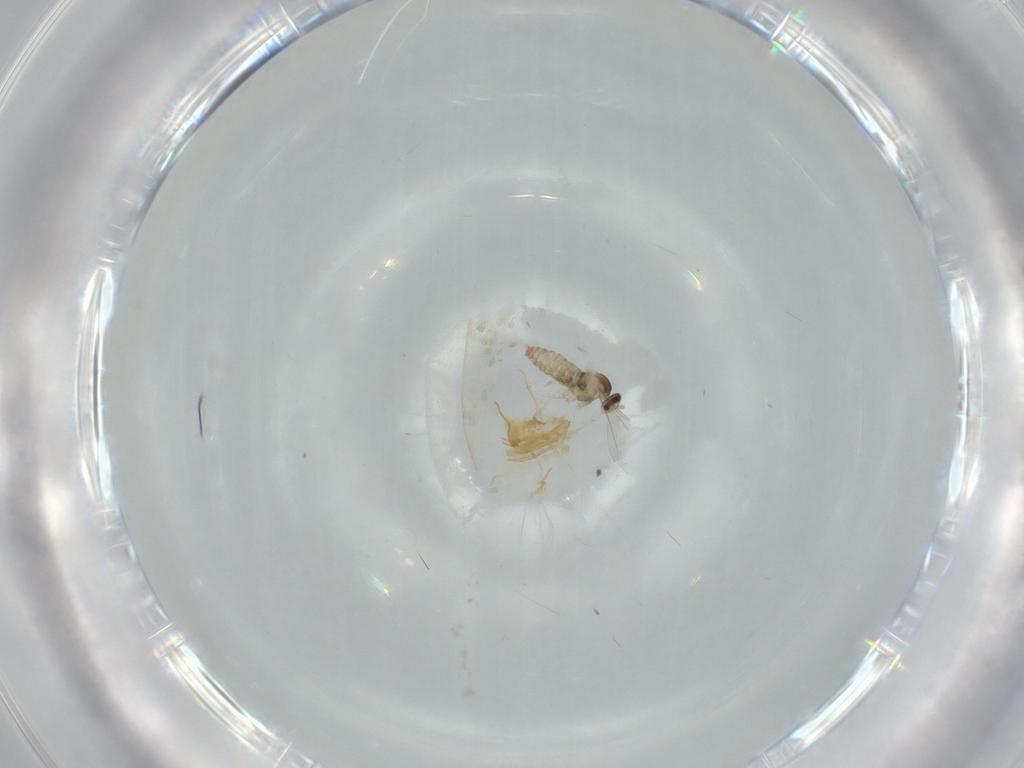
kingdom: Animalia
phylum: Arthropoda
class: Insecta
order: Diptera
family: Cecidomyiidae
